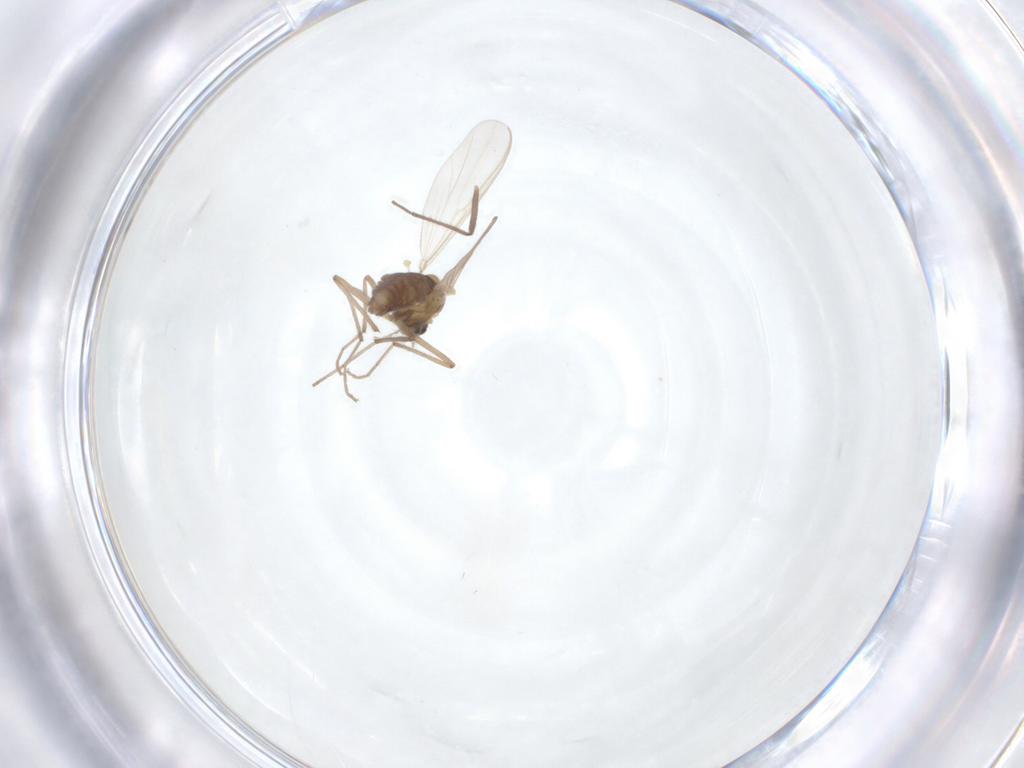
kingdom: Animalia
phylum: Arthropoda
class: Insecta
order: Diptera
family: Chironomidae
